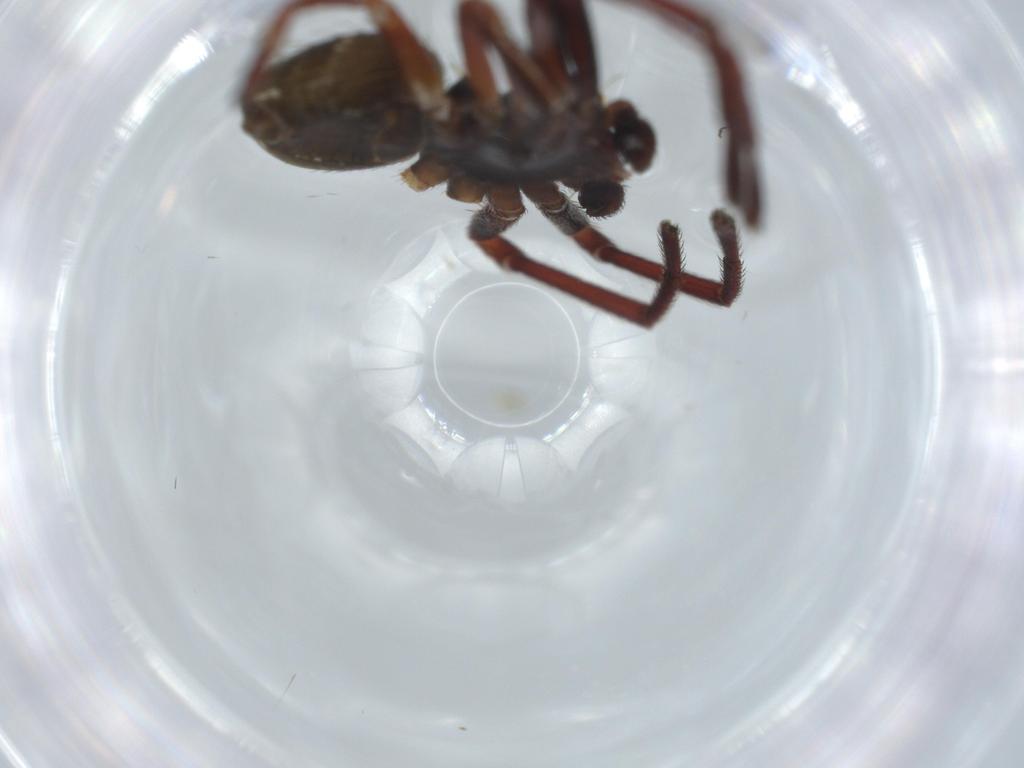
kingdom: Animalia
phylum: Arthropoda
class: Arachnida
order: Araneae
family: Thomisidae
